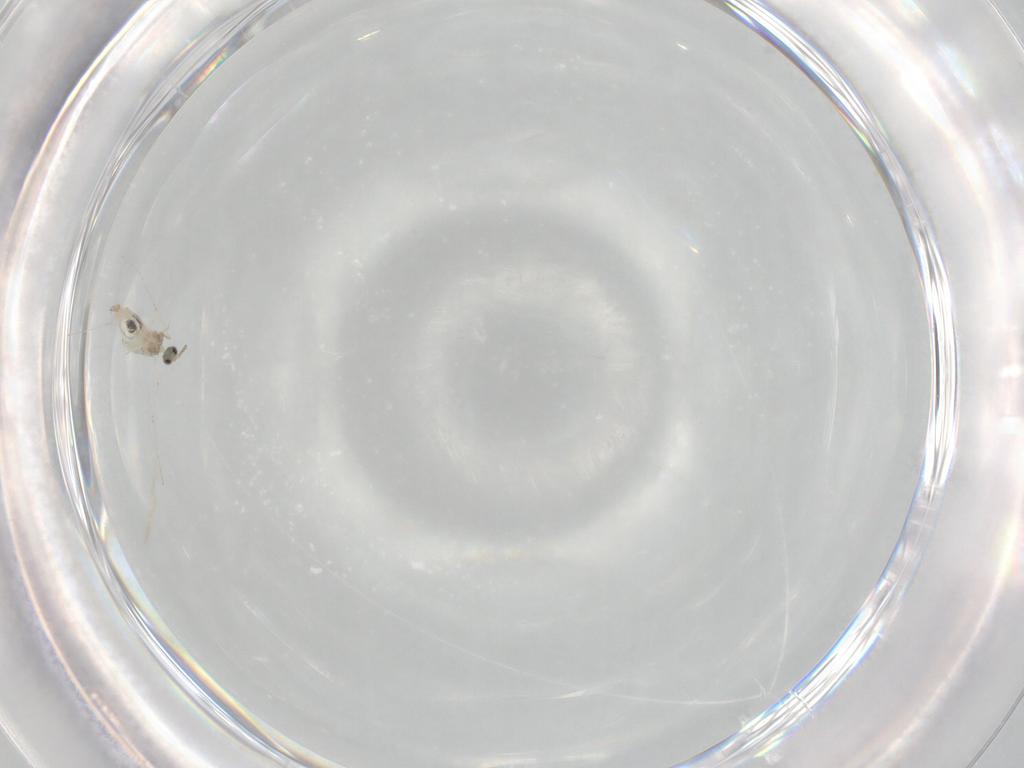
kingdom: Animalia
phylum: Arthropoda
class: Insecta
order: Diptera
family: Cecidomyiidae
